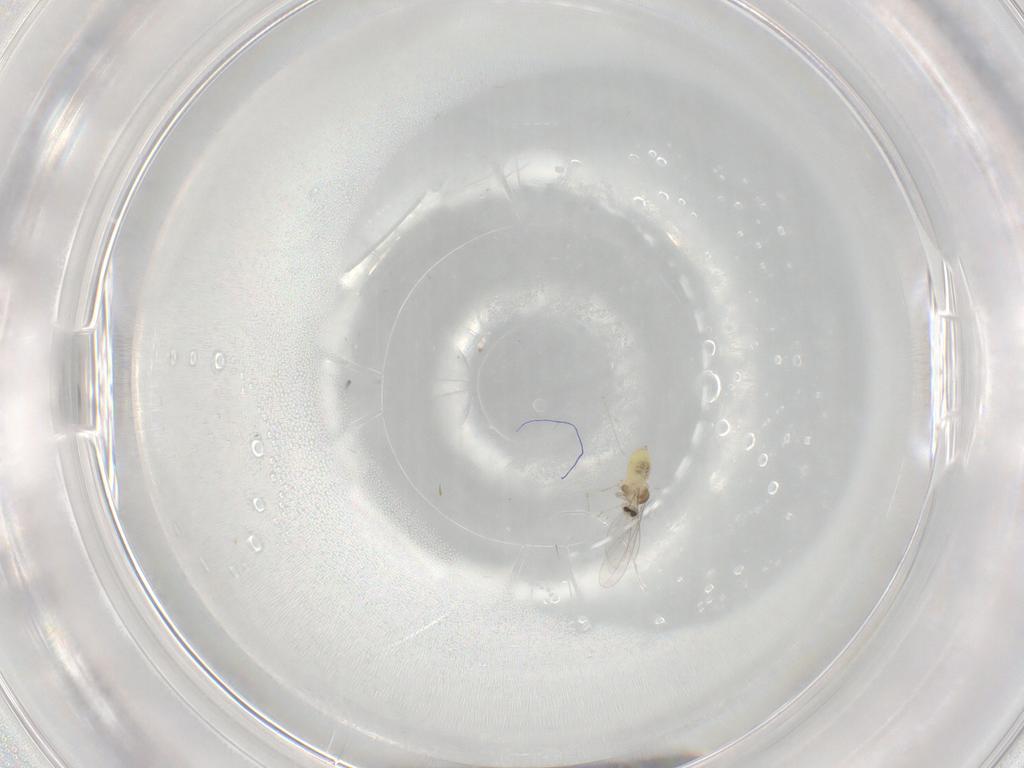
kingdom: Animalia
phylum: Arthropoda
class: Insecta
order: Diptera
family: Cecidomyiidae
